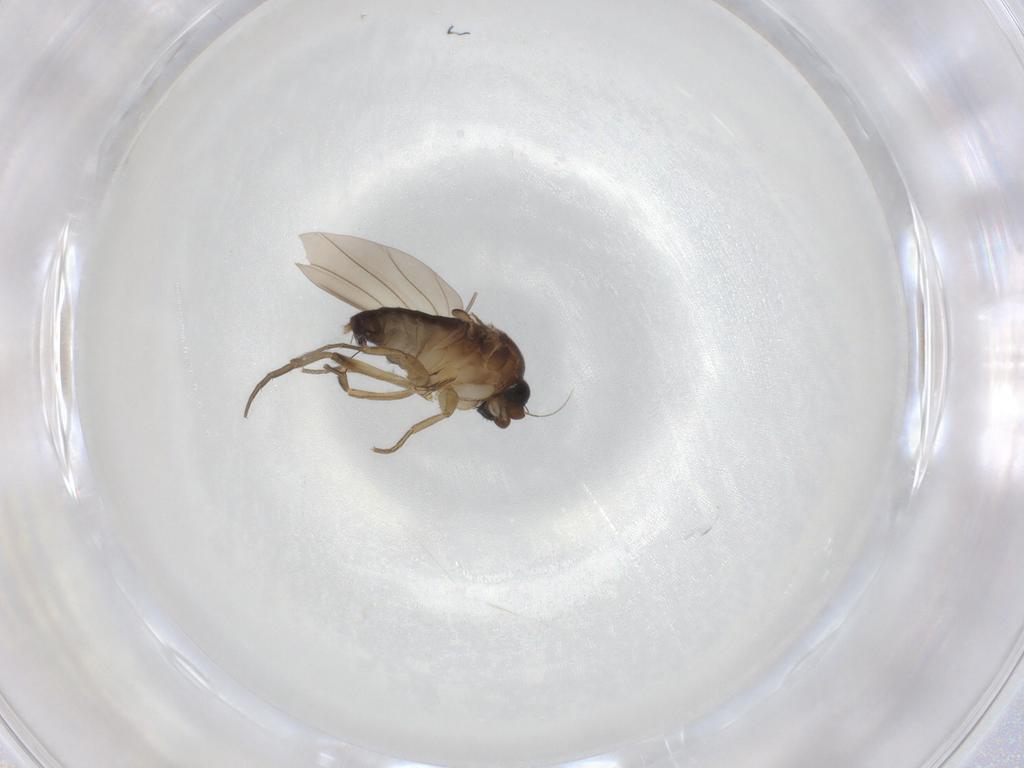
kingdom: Animalia
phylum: Arthropoda
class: Insecta
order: Diptera
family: Phoridae
